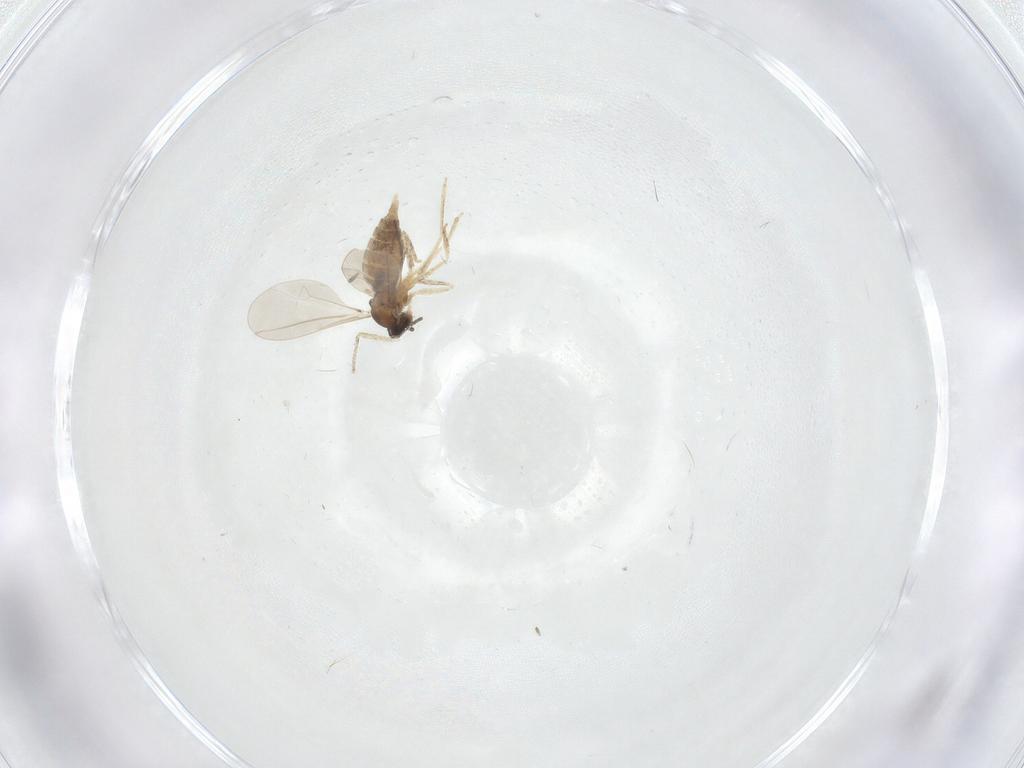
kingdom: Animalia
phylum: Arthropoda
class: Insecta
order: Diptera
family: Cecidomyiidae
